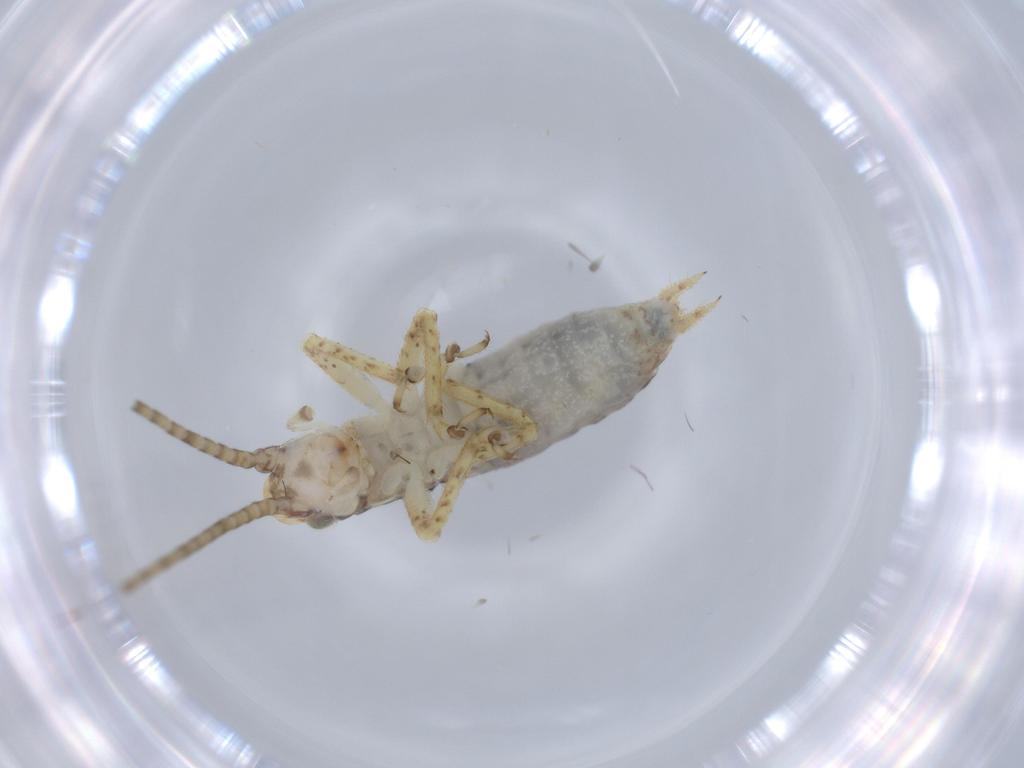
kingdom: Animalia
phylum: Arthropoda
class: Insecta
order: Orthoptera
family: Gryllidae
